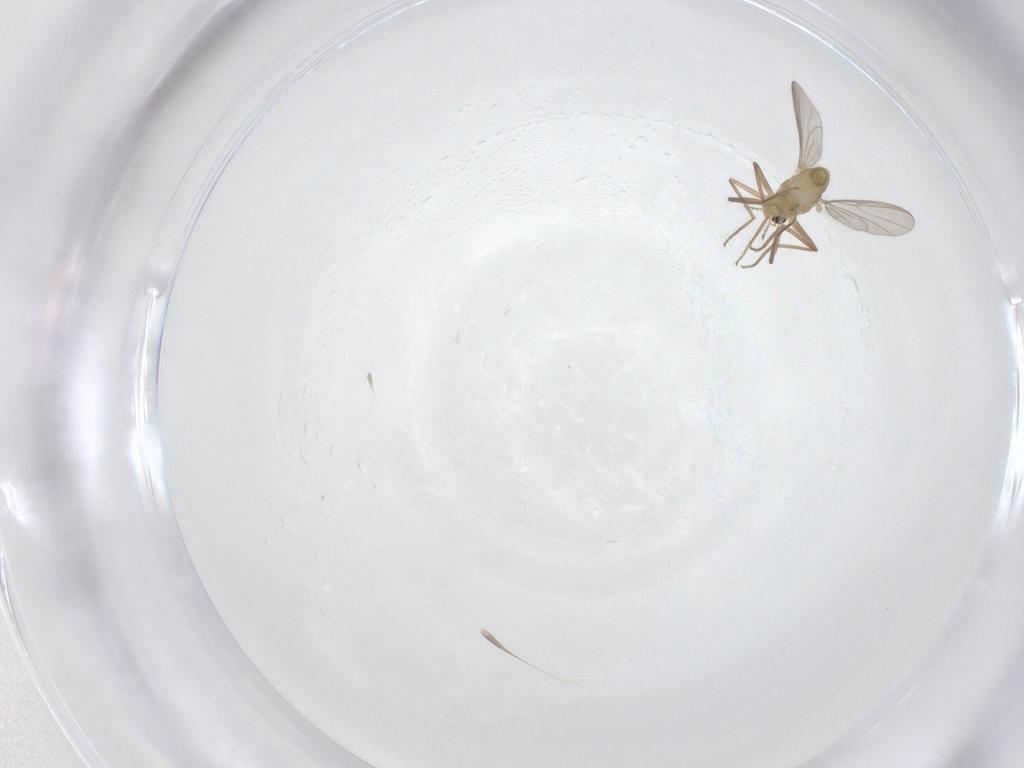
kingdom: Animalia
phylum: Arthropoda
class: Insecta
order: Diptera
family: Chironomidae
